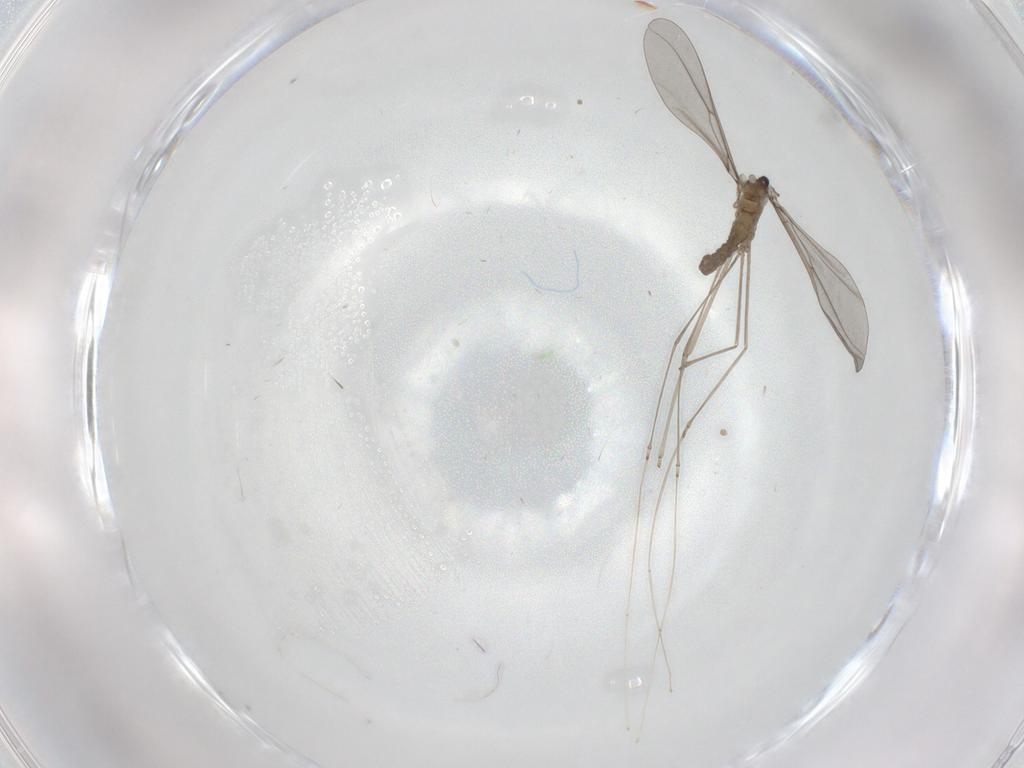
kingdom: Animalia
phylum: Arthropoda
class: Insecta
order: Diptera
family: Cecidomyiidae
